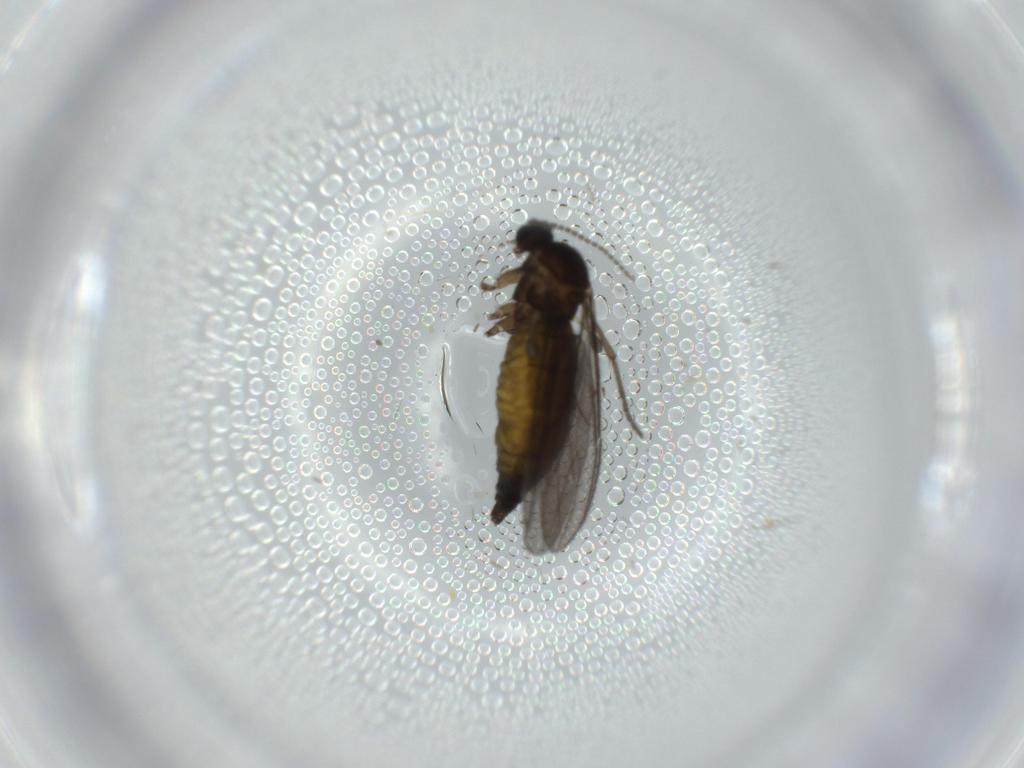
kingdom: Animalia
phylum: Arthropoda
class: Insecta
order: Diptera
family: Sciaridae
